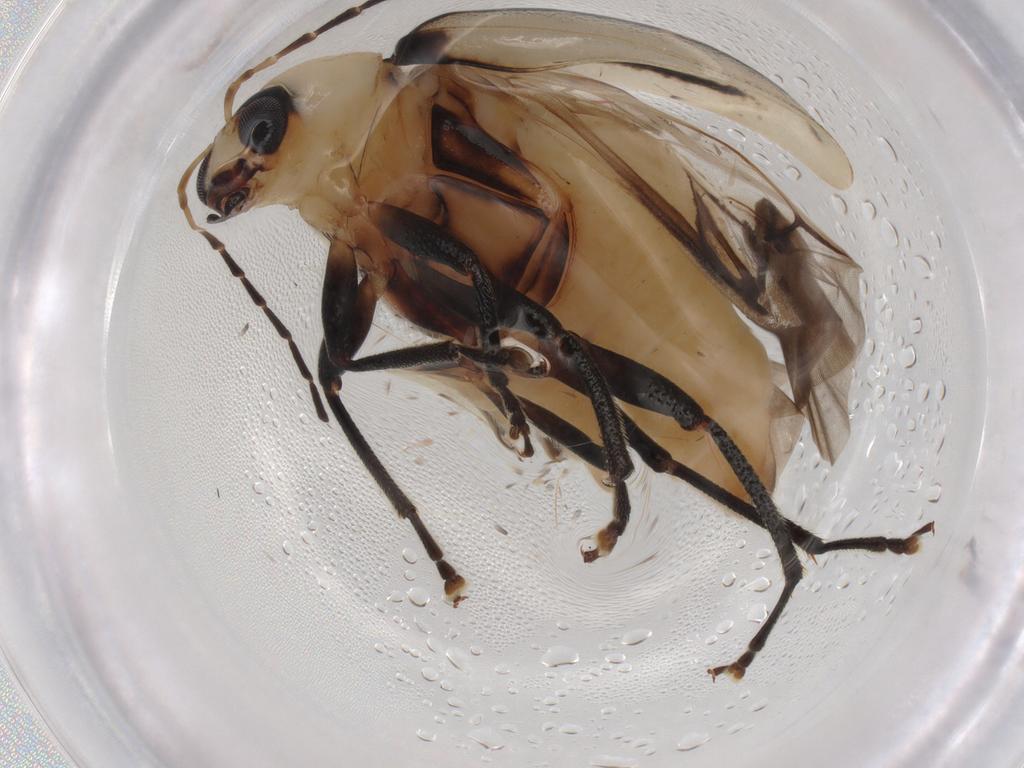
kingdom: Animalia
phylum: Arthropoda
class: Insecta
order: Coleoptera
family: Chrysomelidae
